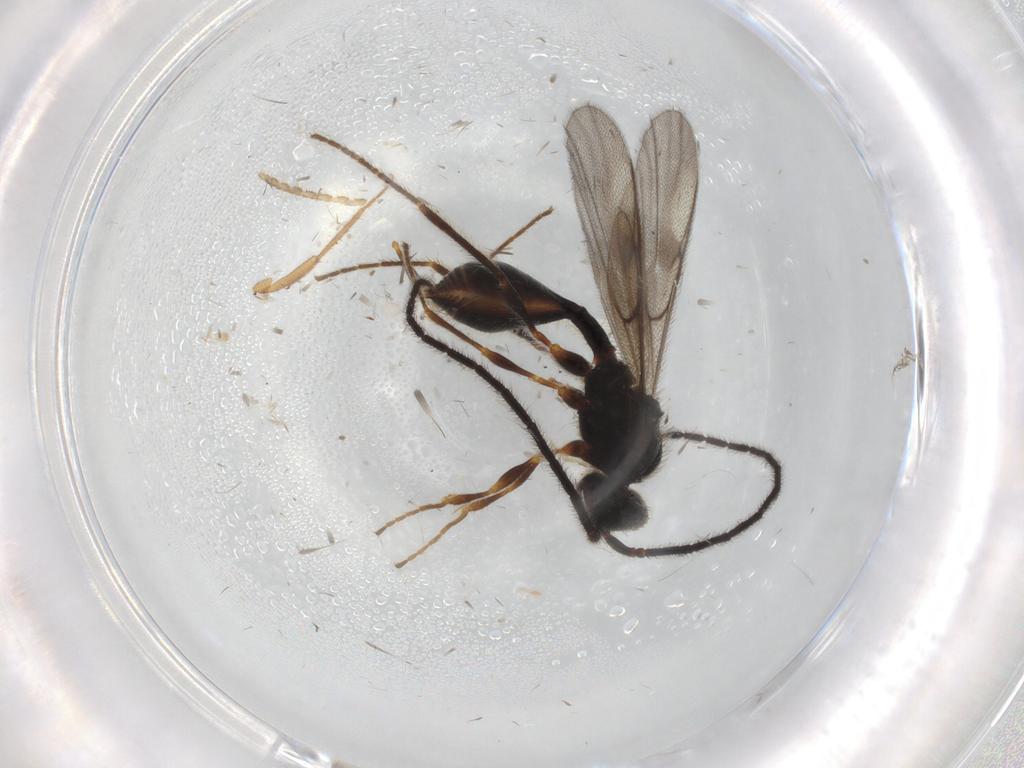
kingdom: Animalia
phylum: Arthropoda
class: Insecta
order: Hymenoptera
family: Diapriidae
